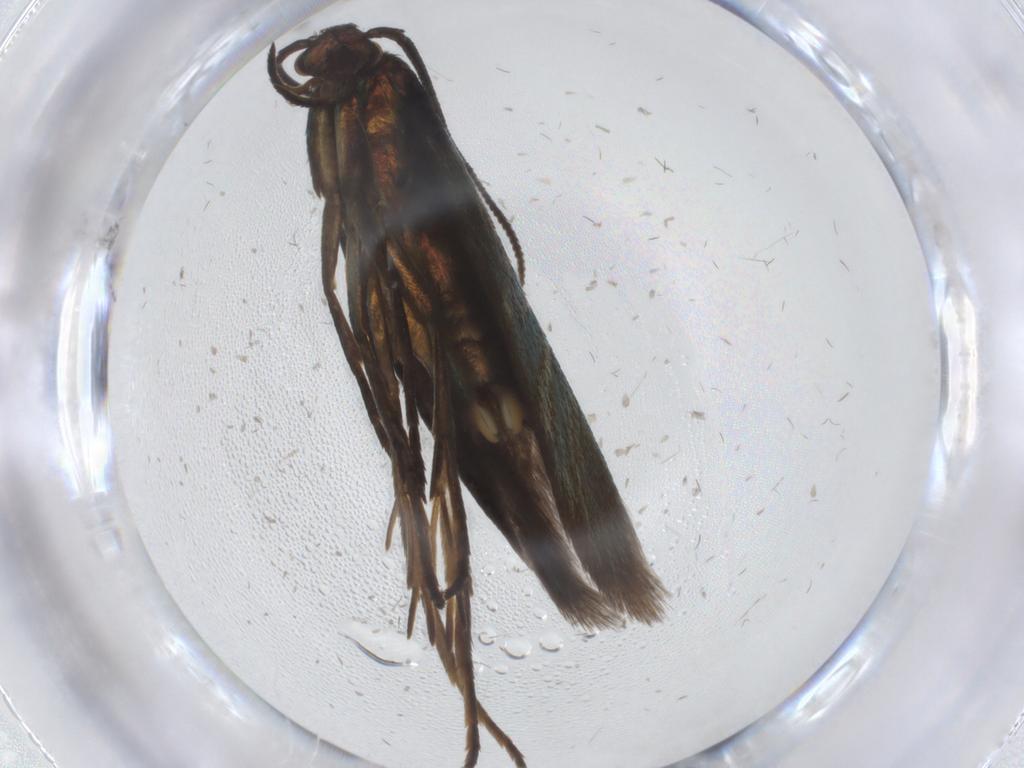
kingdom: Animalia
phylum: Arthropoda
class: Insecta
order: Lepidoptera
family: Argyresthiidae
